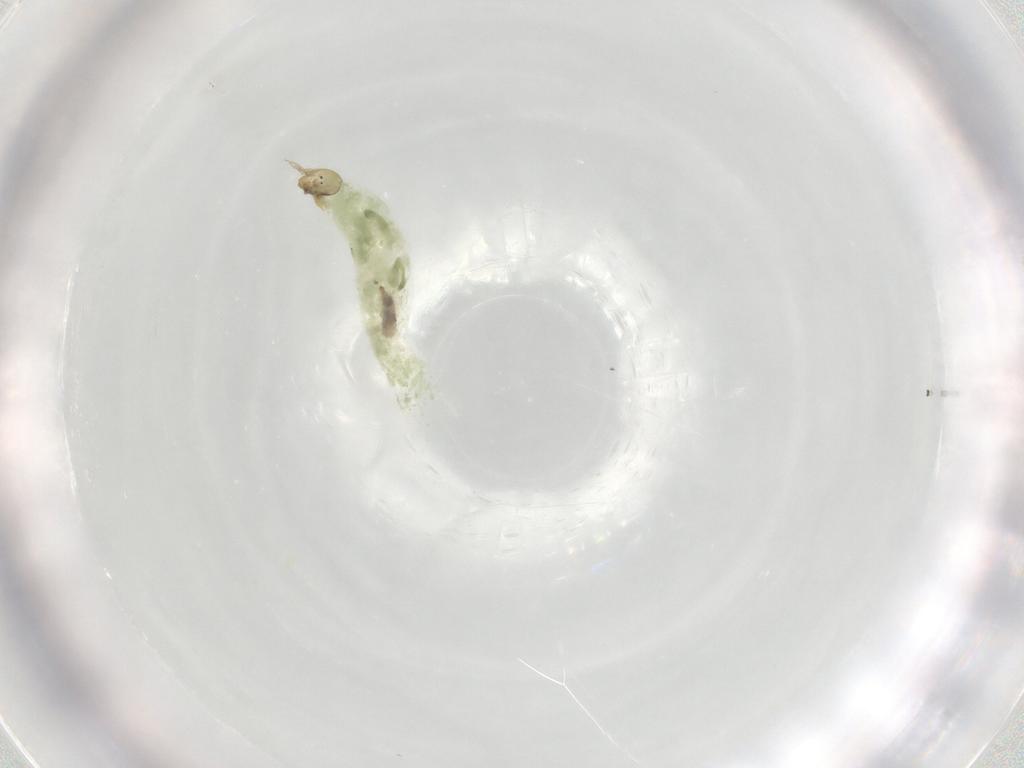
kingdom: Animalia
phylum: Arthropoda
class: Insecta
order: Diptera
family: Chironomidae
